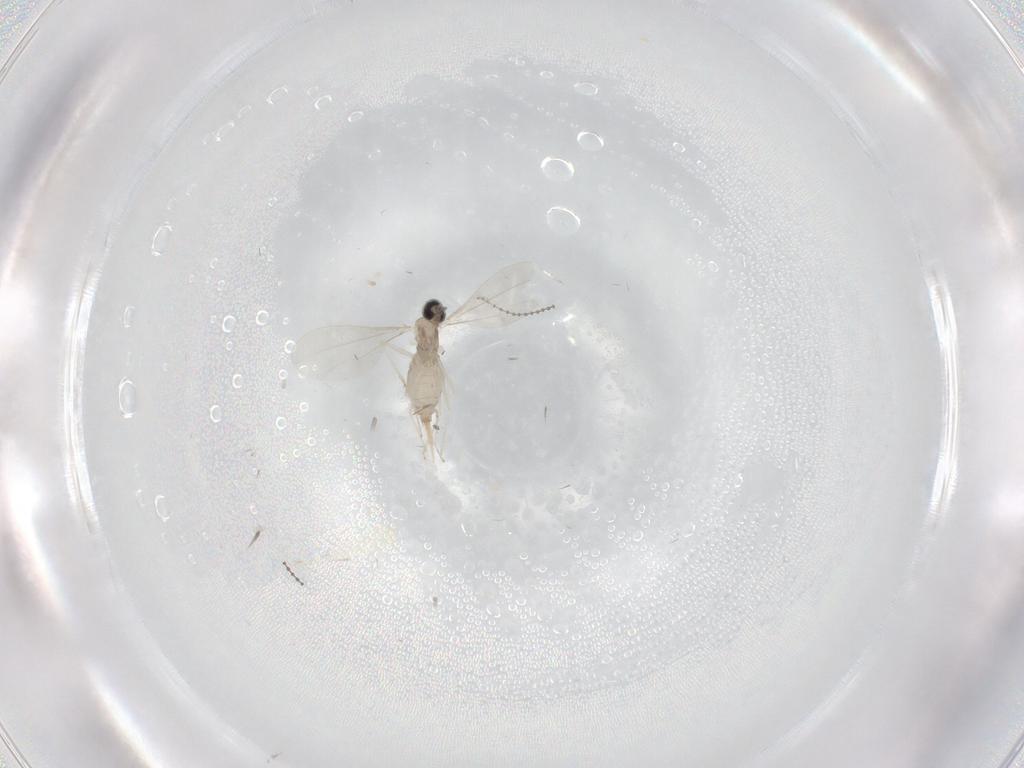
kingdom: Animalia
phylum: Arthropoda
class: Insecta
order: Diptera
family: Cecidomyiidae
